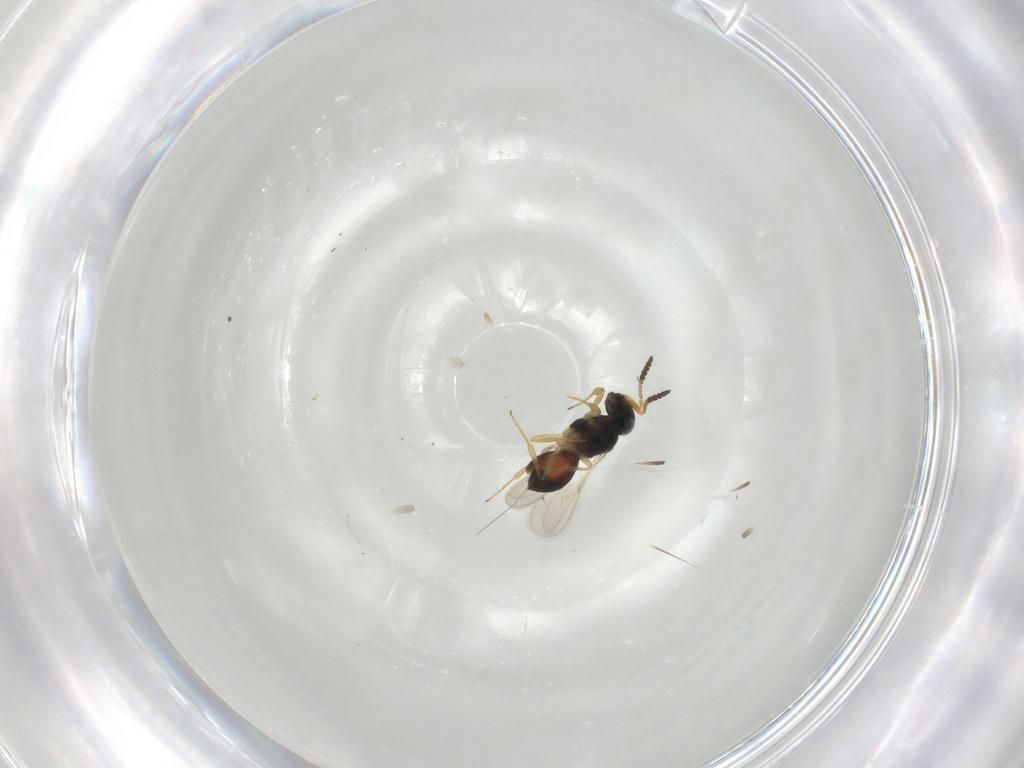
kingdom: Animalia
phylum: Arthropoda
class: Insecta
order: Hymenoptera
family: Scelionidae
